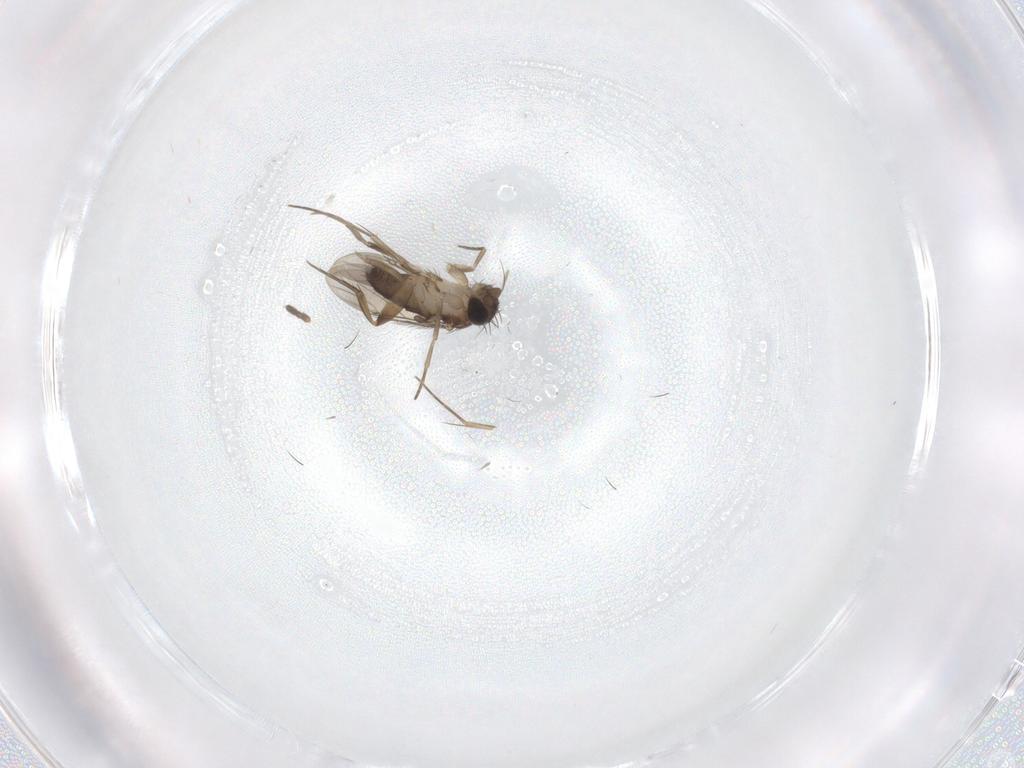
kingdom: Animalia
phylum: Arthropoda
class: Insecta
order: Diptera
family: Phoridae
